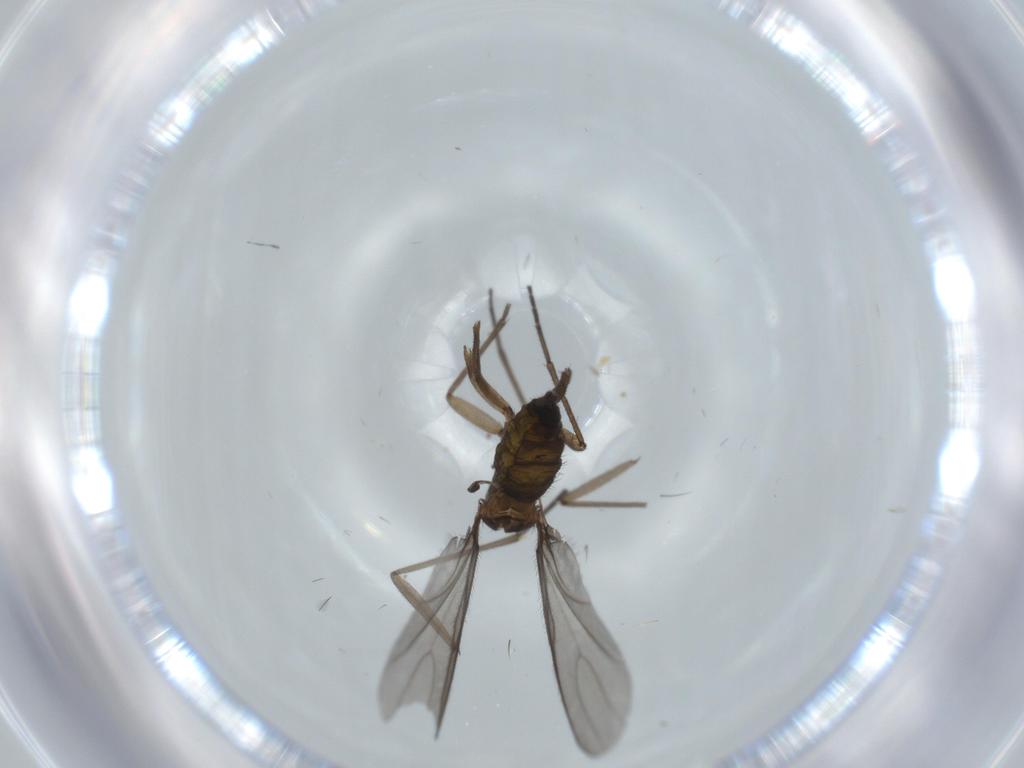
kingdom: Animalia
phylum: Arthropoda
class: Insecta
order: Diptera
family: Sciaridae
